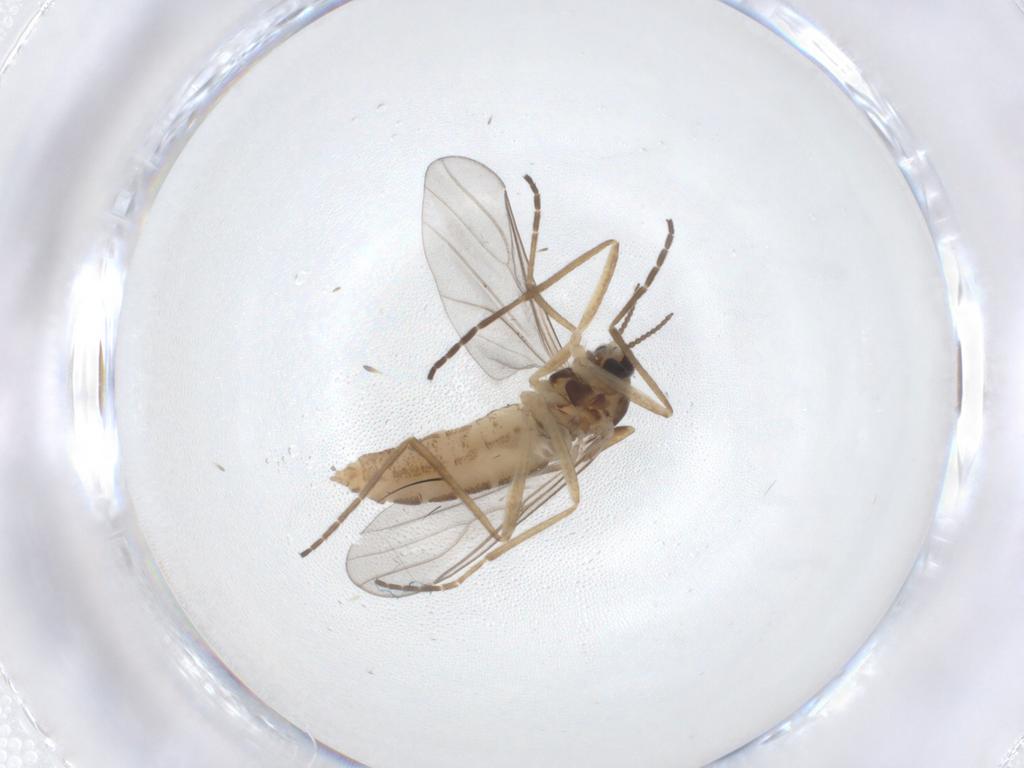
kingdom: Animalia
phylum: Arthropoda
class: Insecta
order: Diptera
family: Cecidomyiidae
